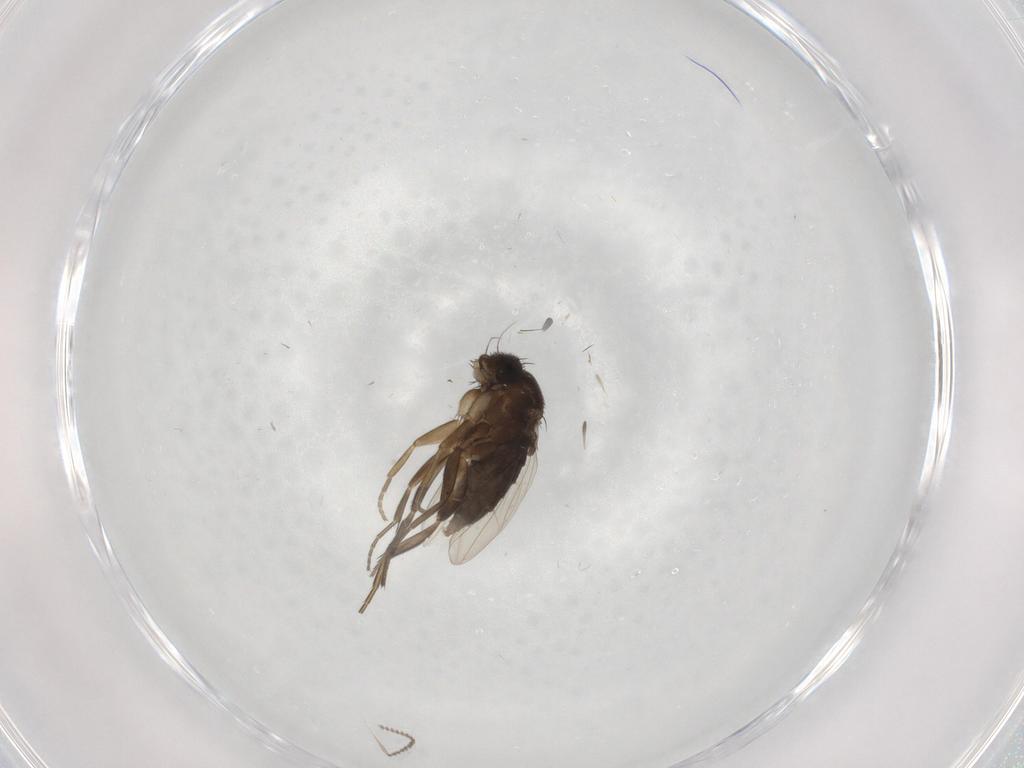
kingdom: Animalia
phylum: Arthropoda
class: Insecta
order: Diptera
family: Phoridae
